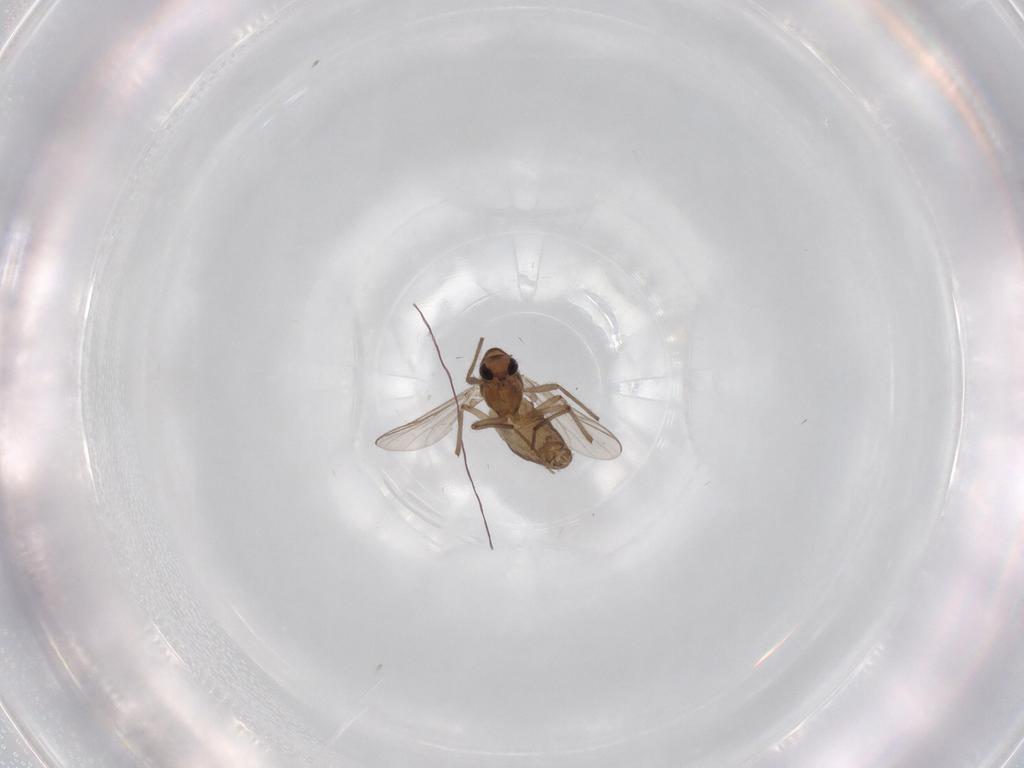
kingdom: Animalia
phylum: Arthropoda
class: Insecta
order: Diptera
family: Chironomidae
